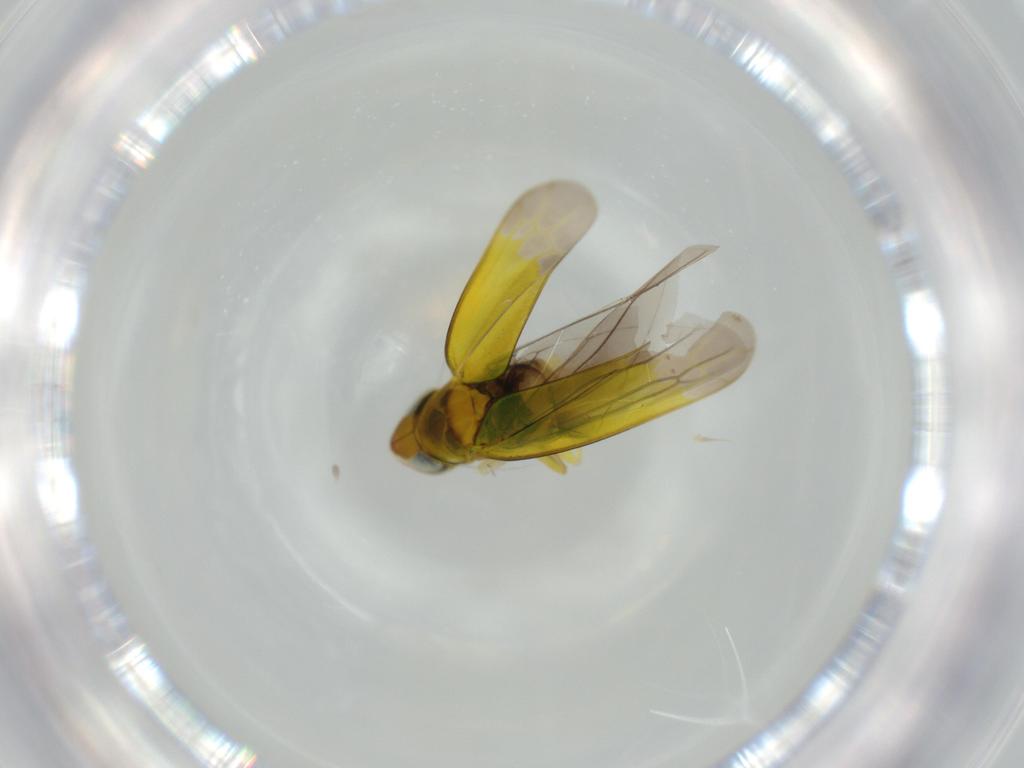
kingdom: Animalia
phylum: Arthropoda
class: Insecta
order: Hemiptera
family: Cicadellidae
